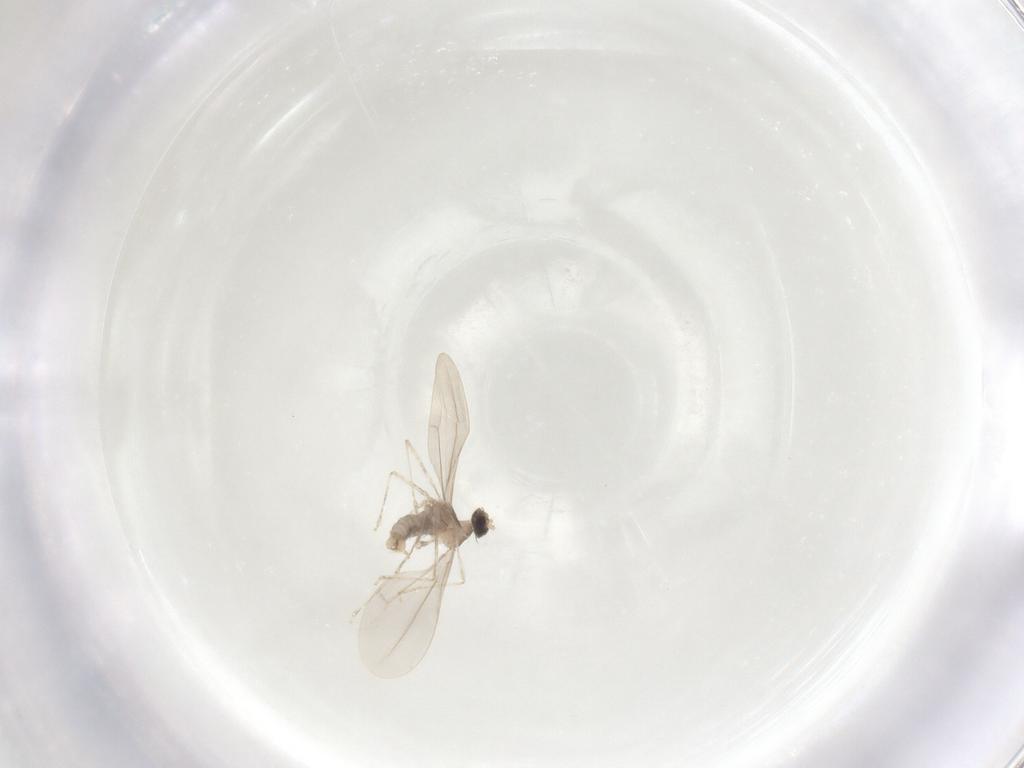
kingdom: Animalia
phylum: Arthropoda
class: Insecta
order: Diptera
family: Cecidomyiidae
